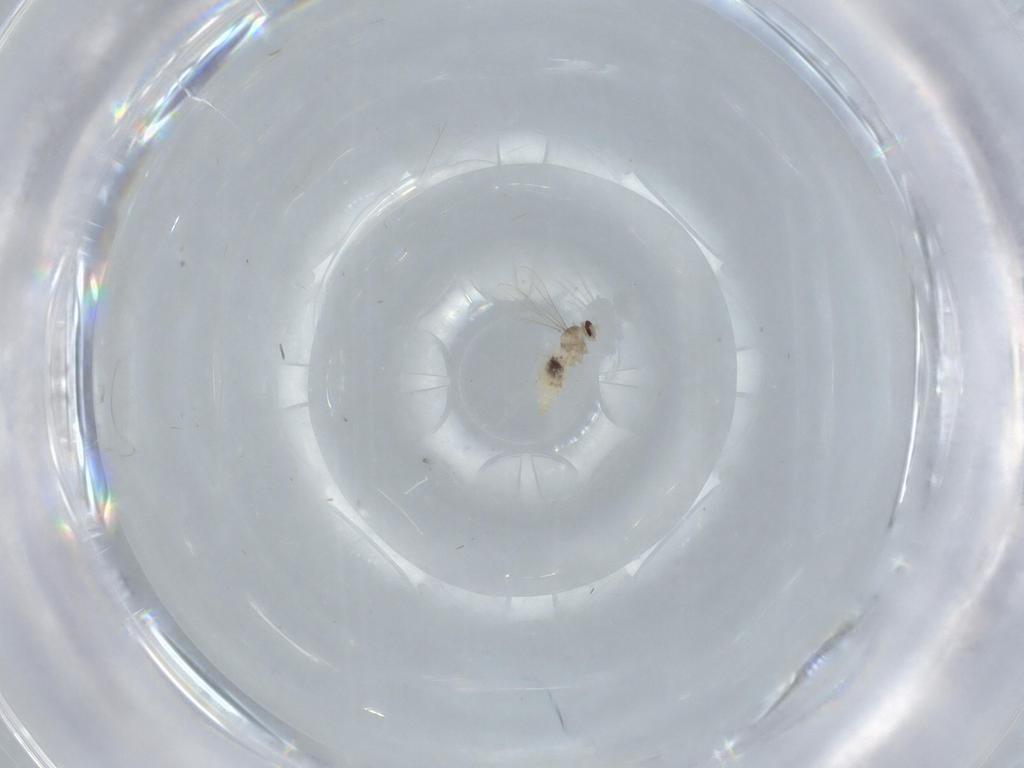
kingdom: Animalia
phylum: Arthropoda
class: Insecta
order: Diptera
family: Cecidomyiidae
